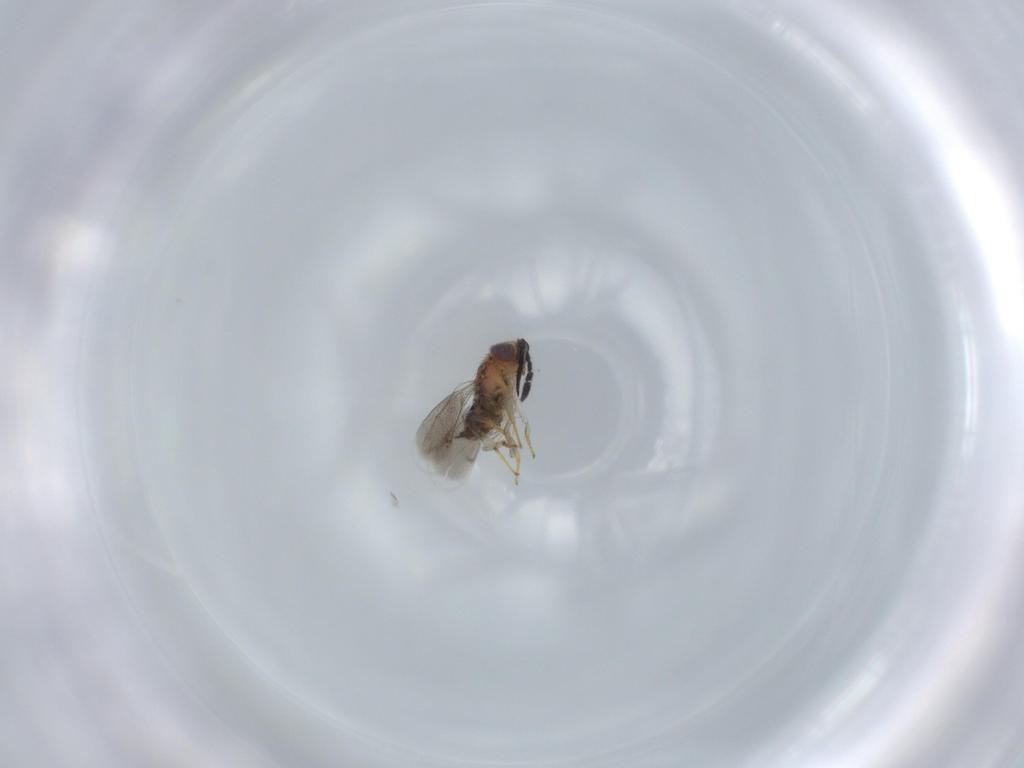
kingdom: Animalia
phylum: Arthropoda
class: Insecta
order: Hymenoptera
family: Aphelinidae
